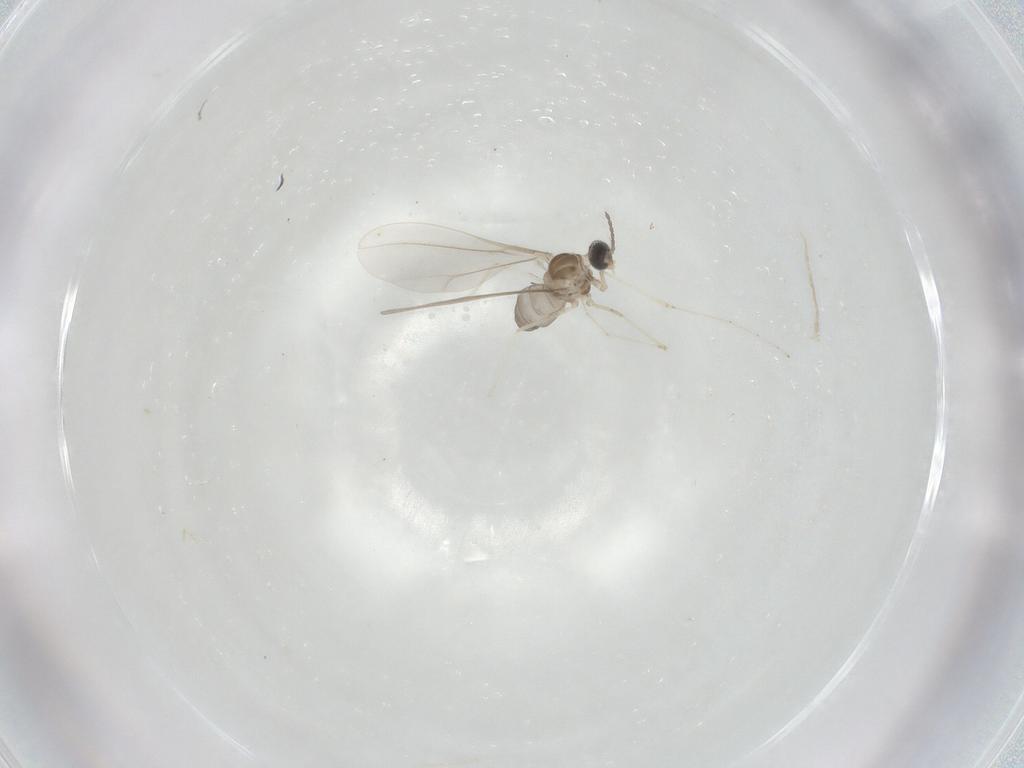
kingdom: Animalia
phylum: Arthropoda
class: Insecta
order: Diptera
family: Cecidomyiidae
